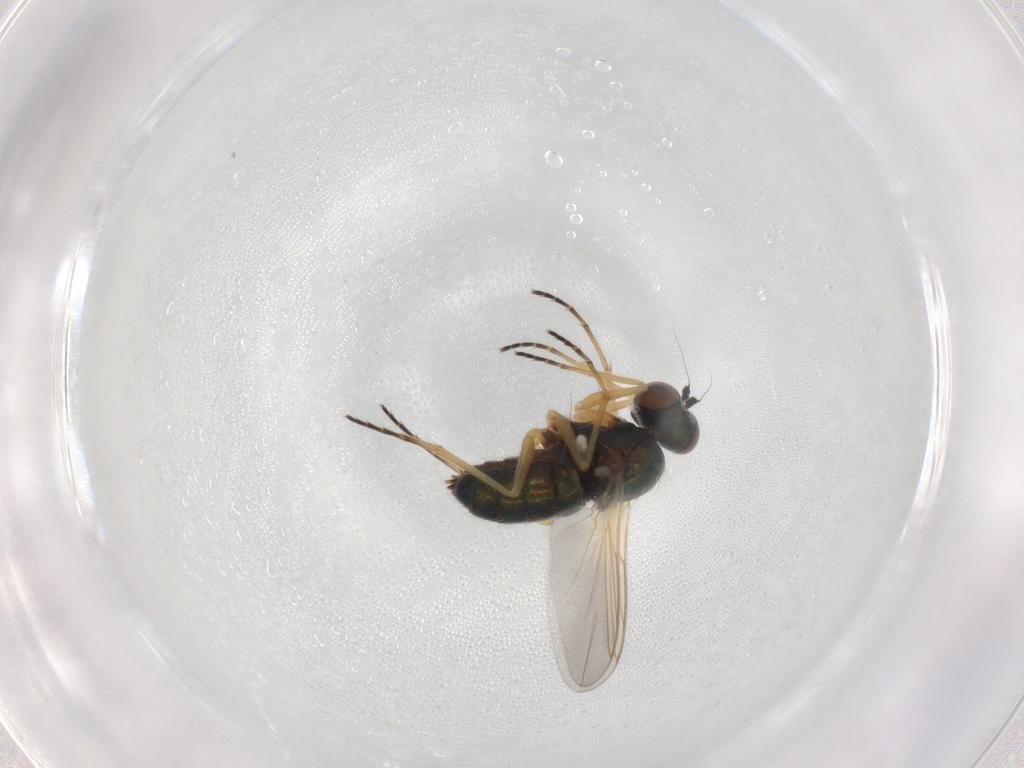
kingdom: Animalia
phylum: Arthropoda
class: Insecta
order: Diptera
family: Dolichopodidae
